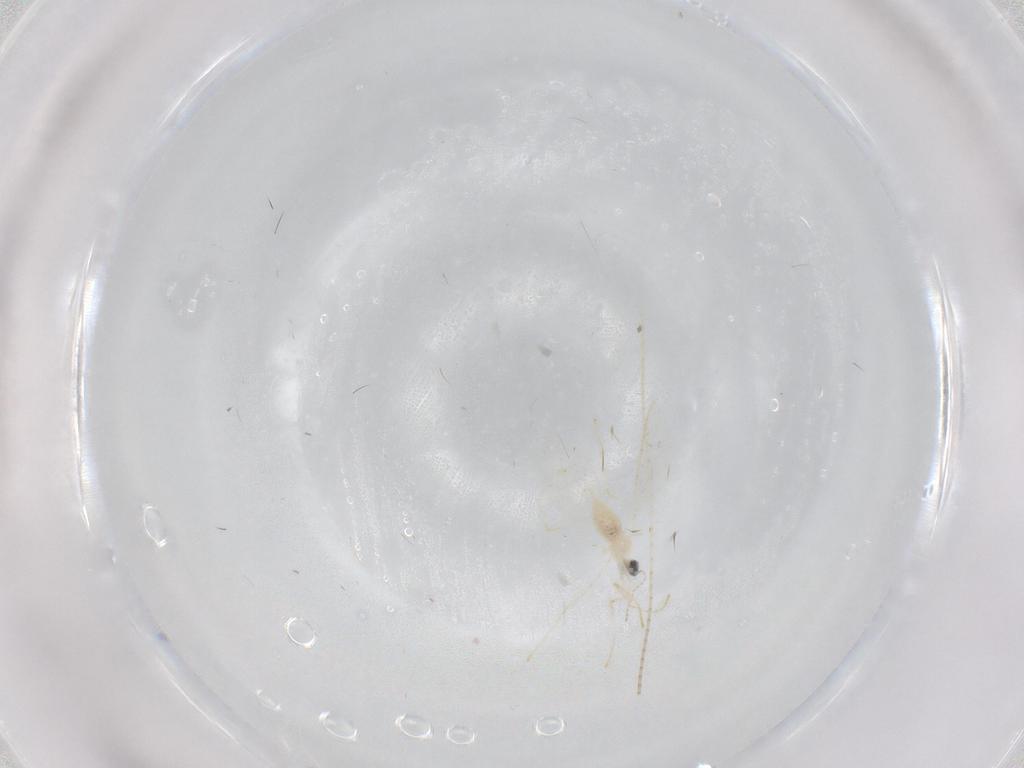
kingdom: Animalia
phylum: Arthropoda
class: Insecta
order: Diptera
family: Cecidomyiidae
